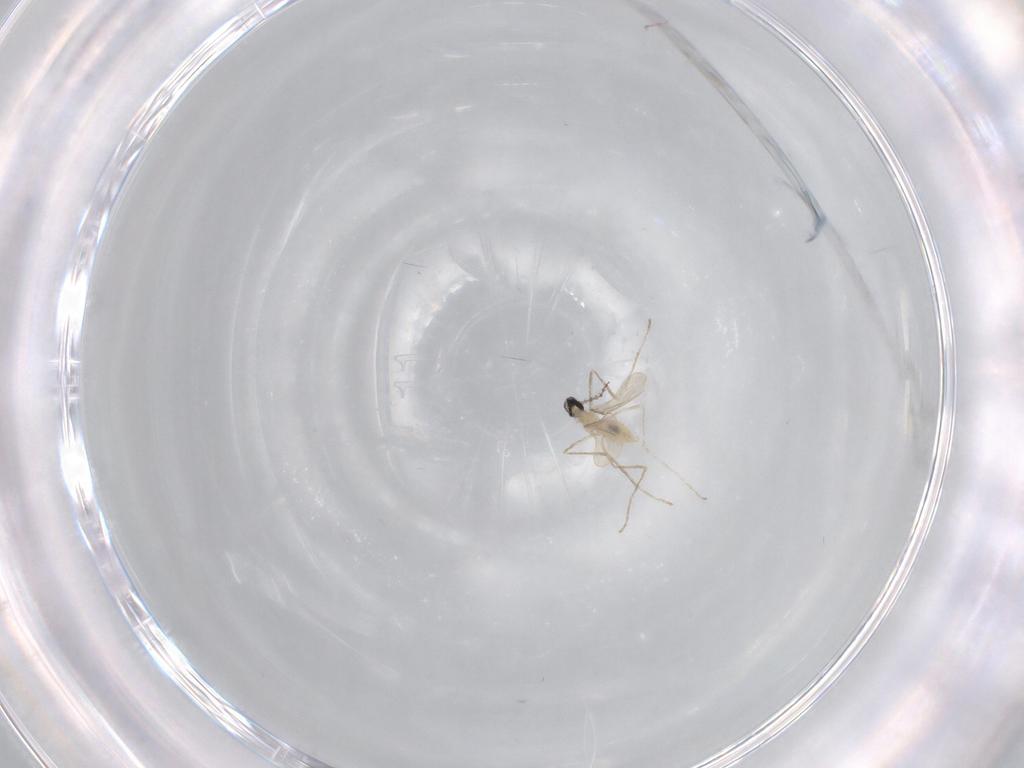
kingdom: Animalia
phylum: Arthropoda
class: Insecta
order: Diptera
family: Cecidomyiidae
